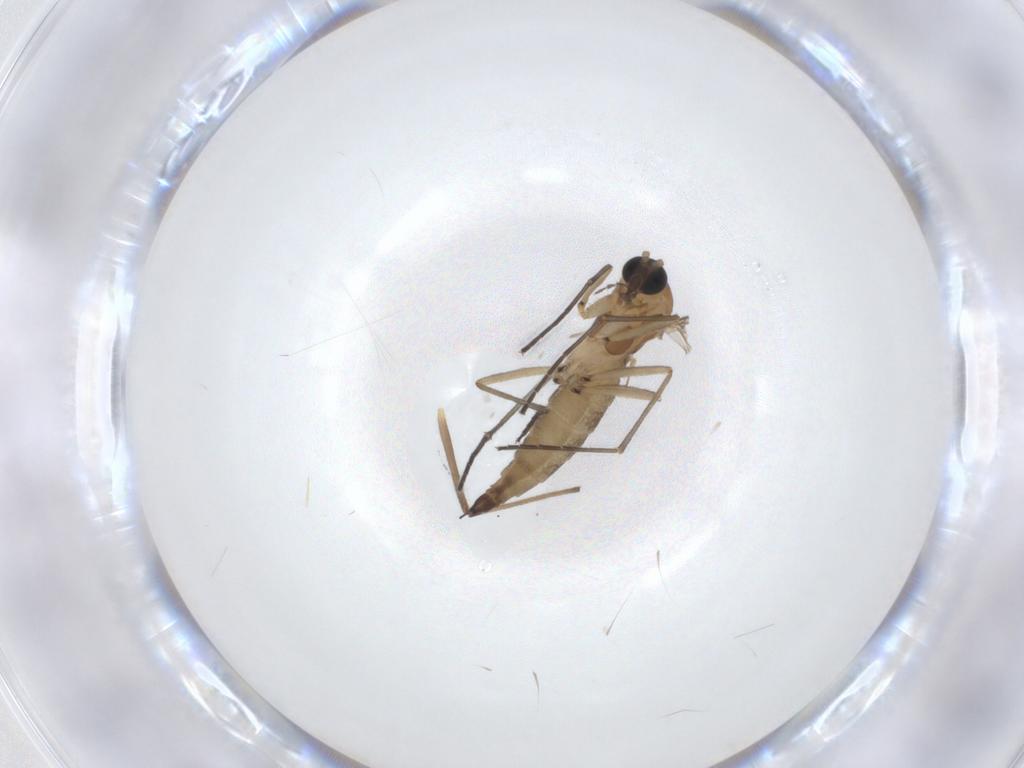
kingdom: Animalia
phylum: Arthropoda
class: Insecta
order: Diptera
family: Sciaridae
